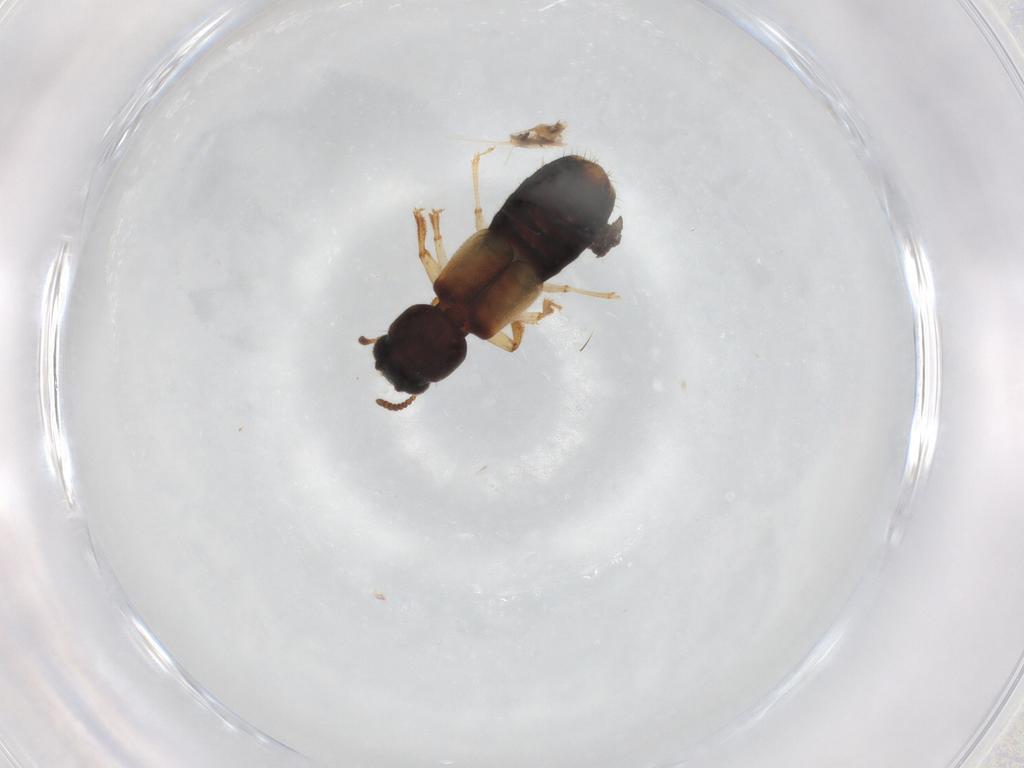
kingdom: Animalia
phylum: Arthropoda
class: Insecta
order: Coleoptera
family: Staphylinidae
